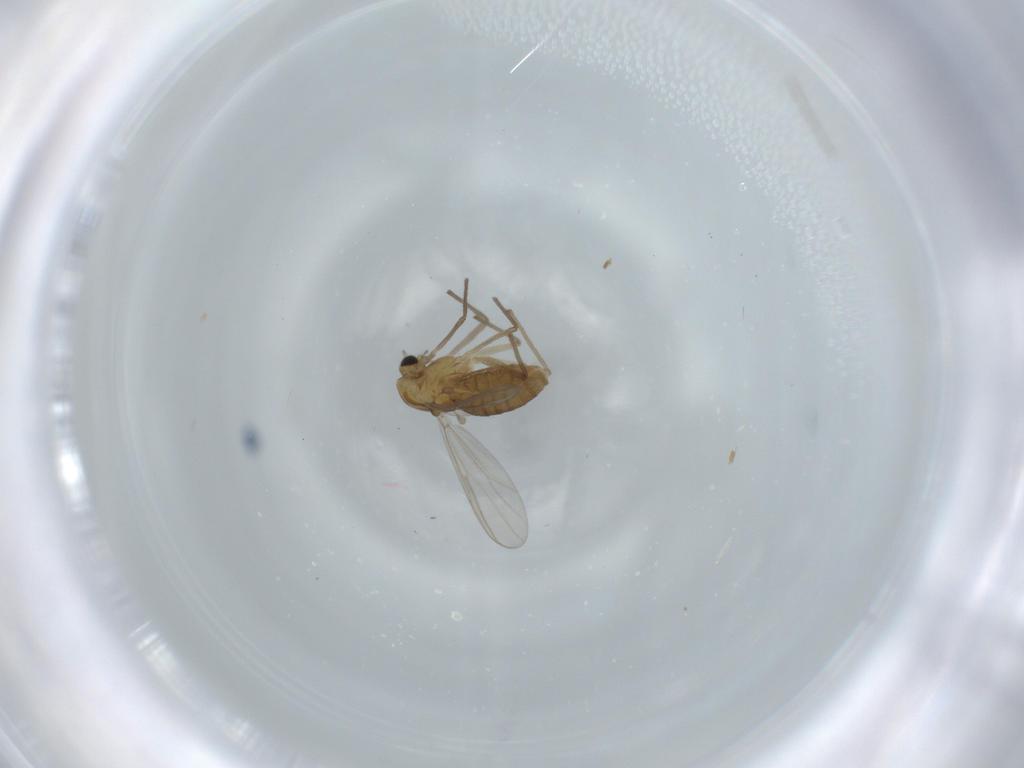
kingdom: Animalia
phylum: Arthropoda
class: Insecta
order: Diptera
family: Chironomidae
